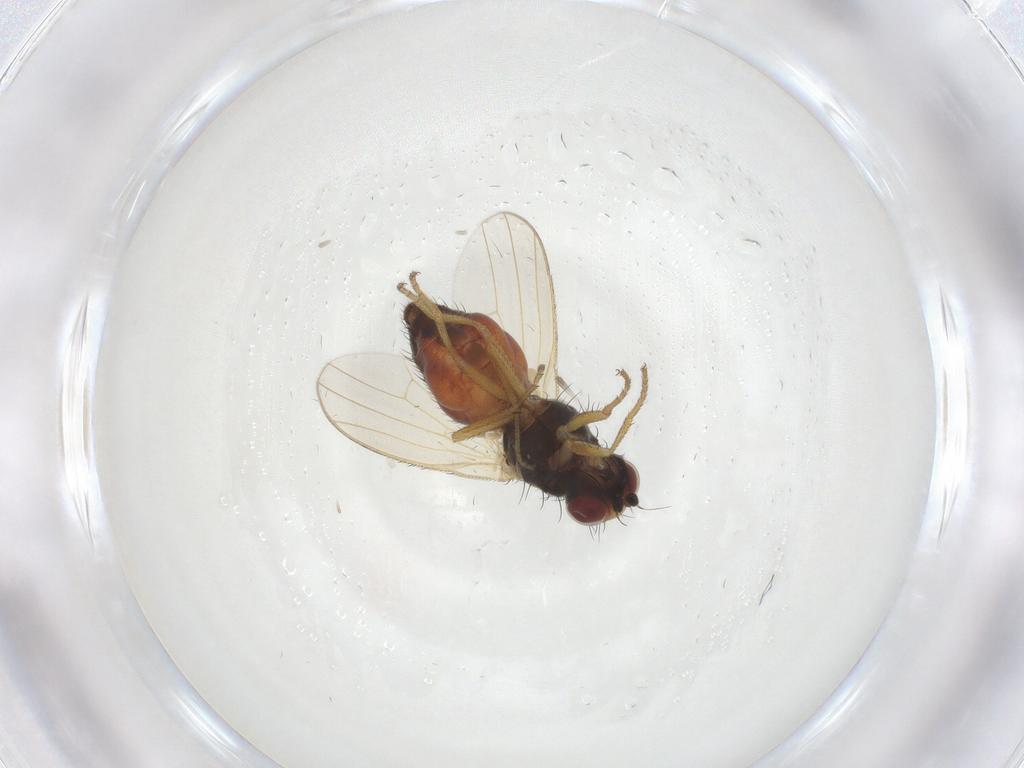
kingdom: Animalia
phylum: Arthropoda
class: Insecta
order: Diptera
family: Heleomyzidae
